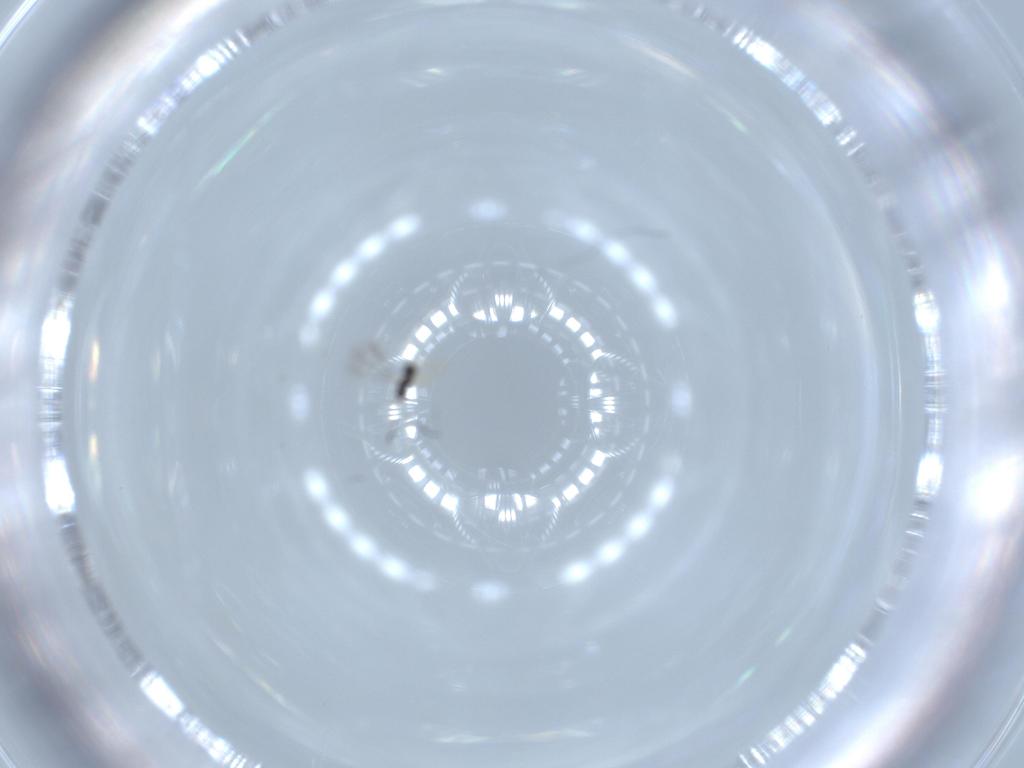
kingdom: Animalia
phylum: Arthropoda
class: Insecta
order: Hymenoptera
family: Mymaridae
